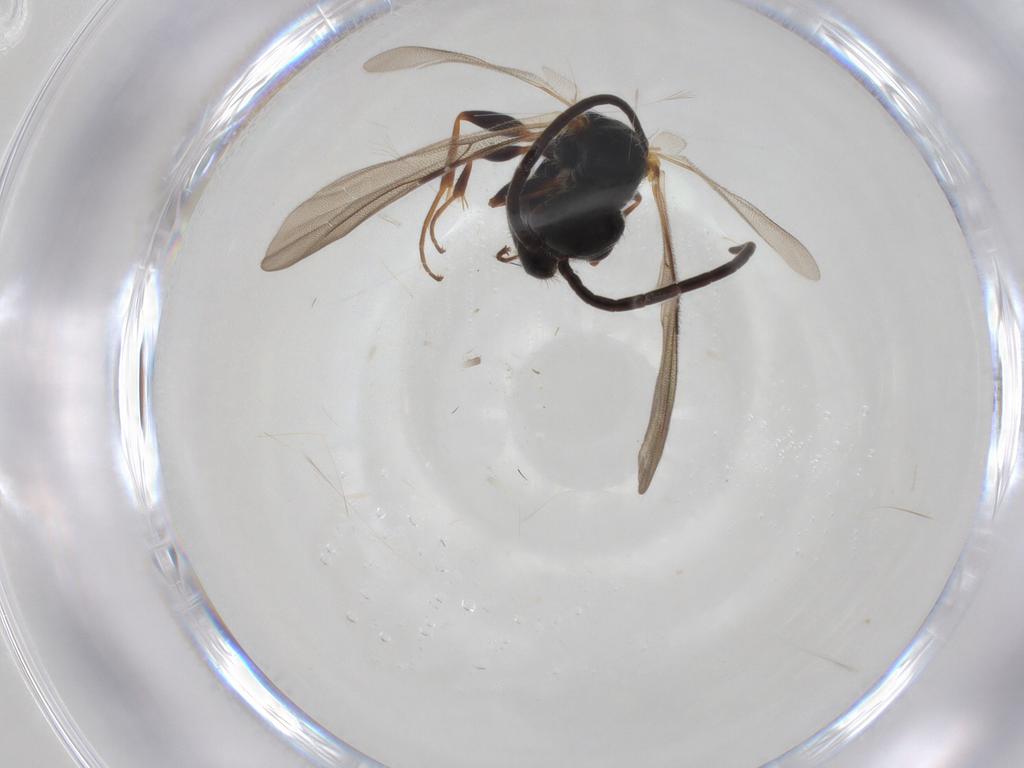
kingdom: Animalia
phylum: Arthropoda
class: Insecta
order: Hymenoptera
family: Bethylidae
